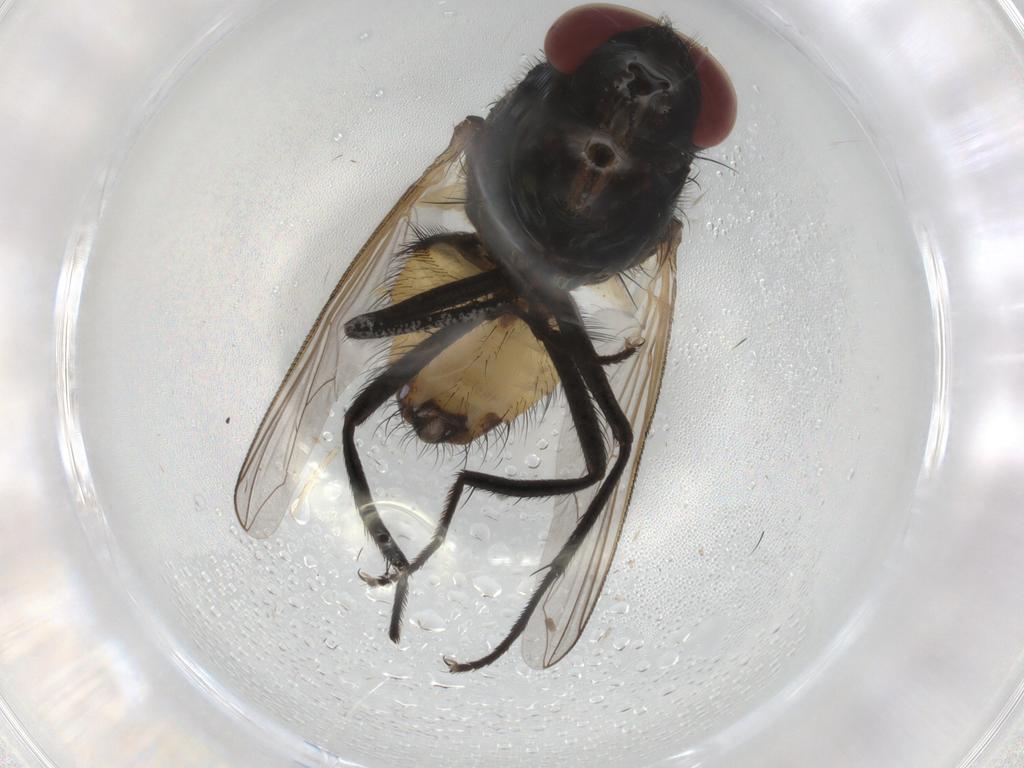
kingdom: Animalia
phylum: Arthropoda
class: Insecta
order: Diptera
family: Muscidae
